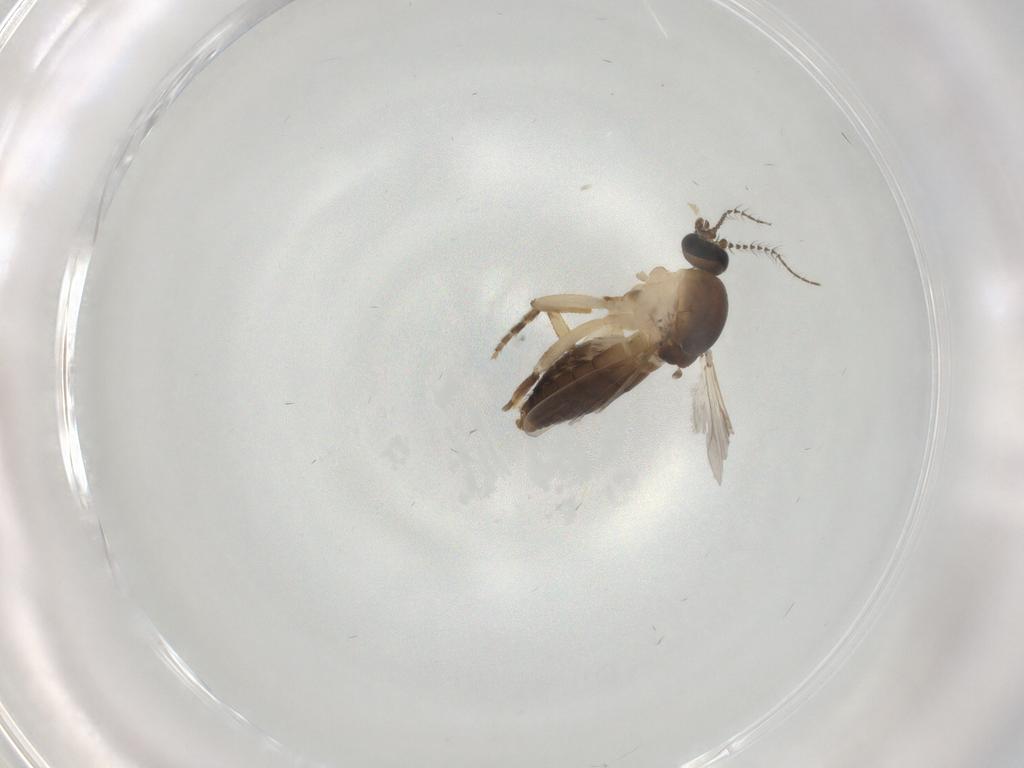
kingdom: Animalia
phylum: Arthropoda
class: Insecta
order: Diptera
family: Ceratopogonidae
